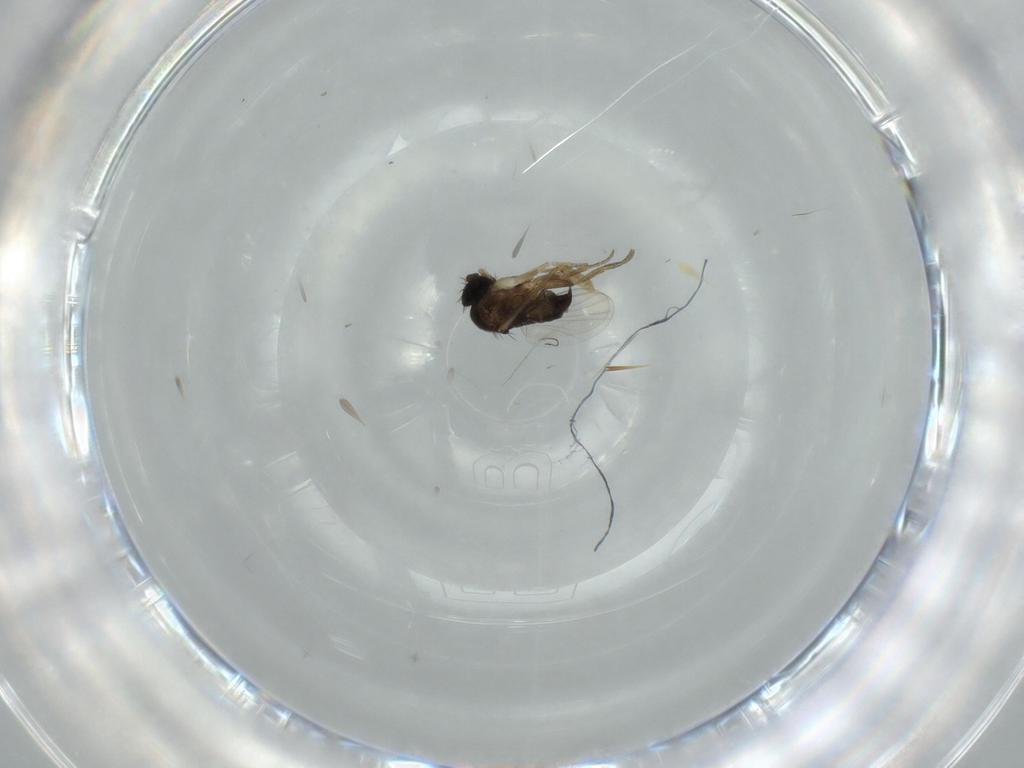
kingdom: Animalia
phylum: Arthropoda
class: Insecta
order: Diptera
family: Chironomidae
